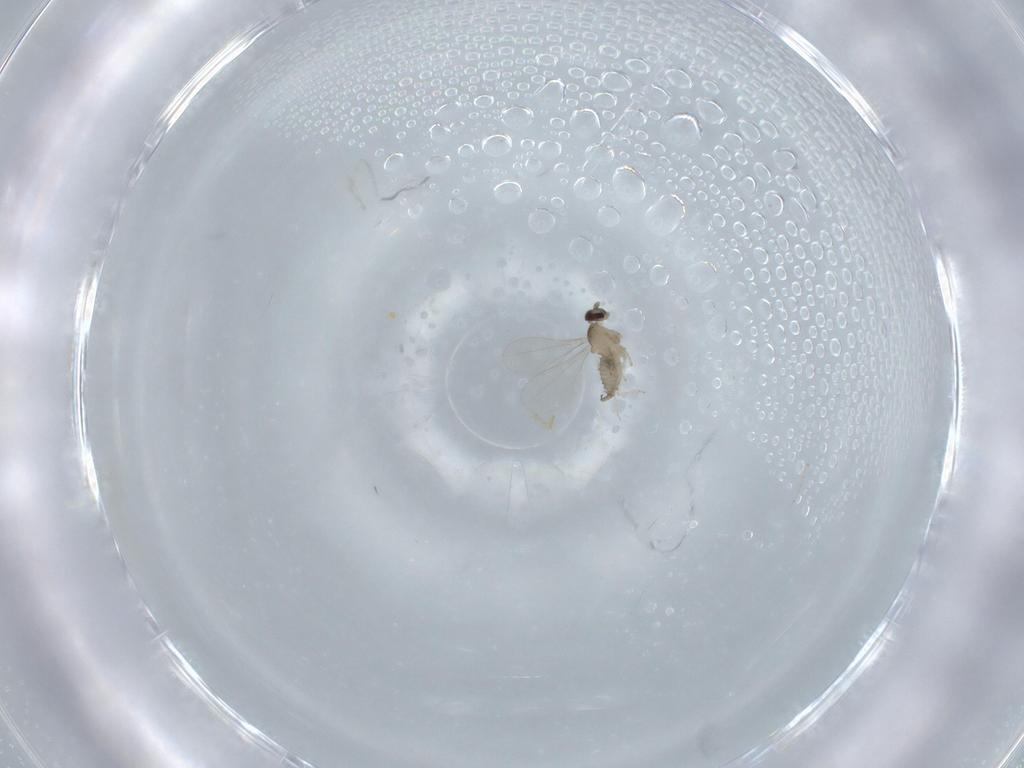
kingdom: Animalia
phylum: Arthropoda
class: Insecta
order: Diptera
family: Cecidomyiidae
